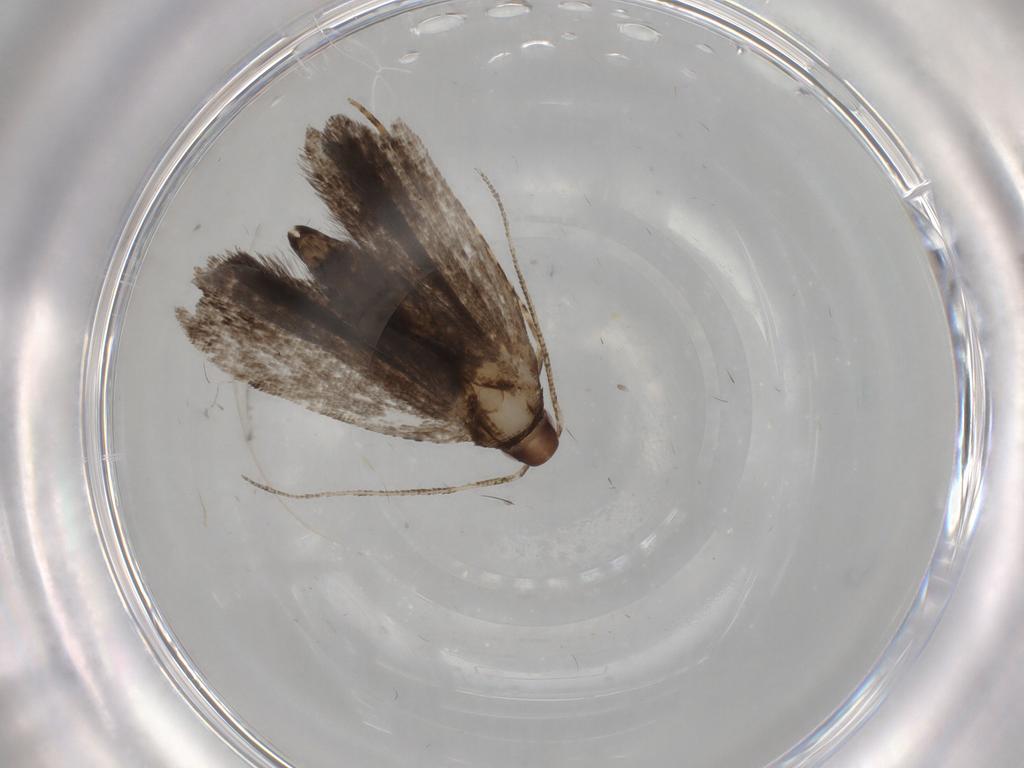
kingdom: Animalia
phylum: Arthropoda
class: Insecta
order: Lepidoptera
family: Gelechiidae
